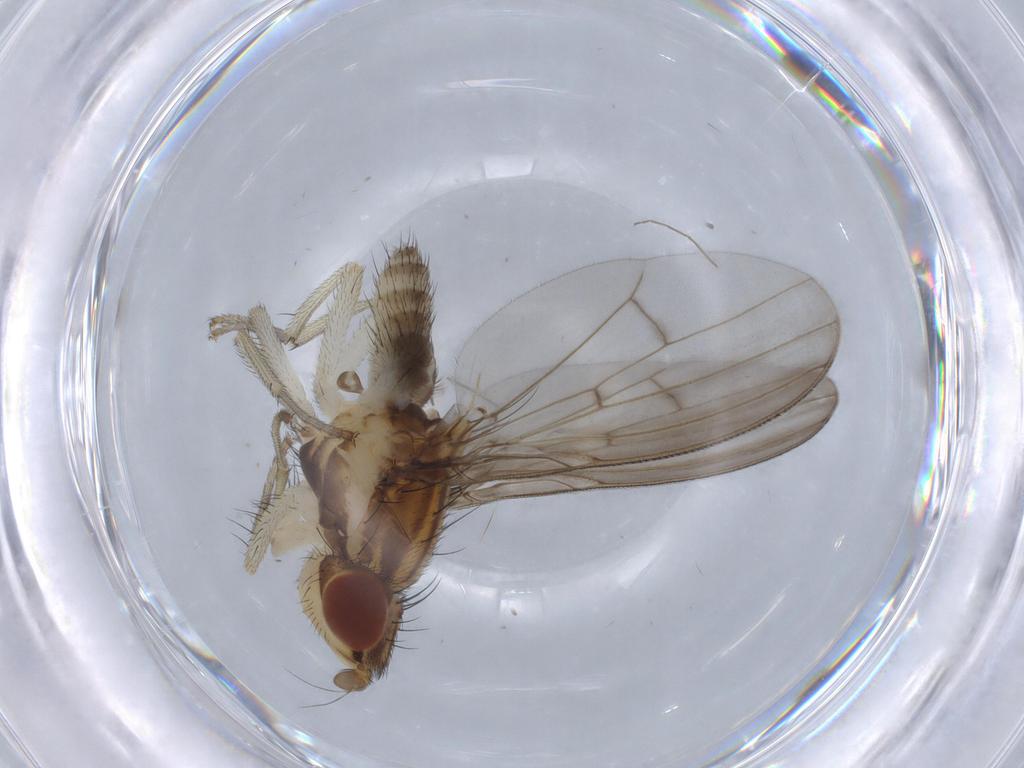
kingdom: Animalia
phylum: Arthropoda
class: Insecta
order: Diptera
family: Chironomidae
